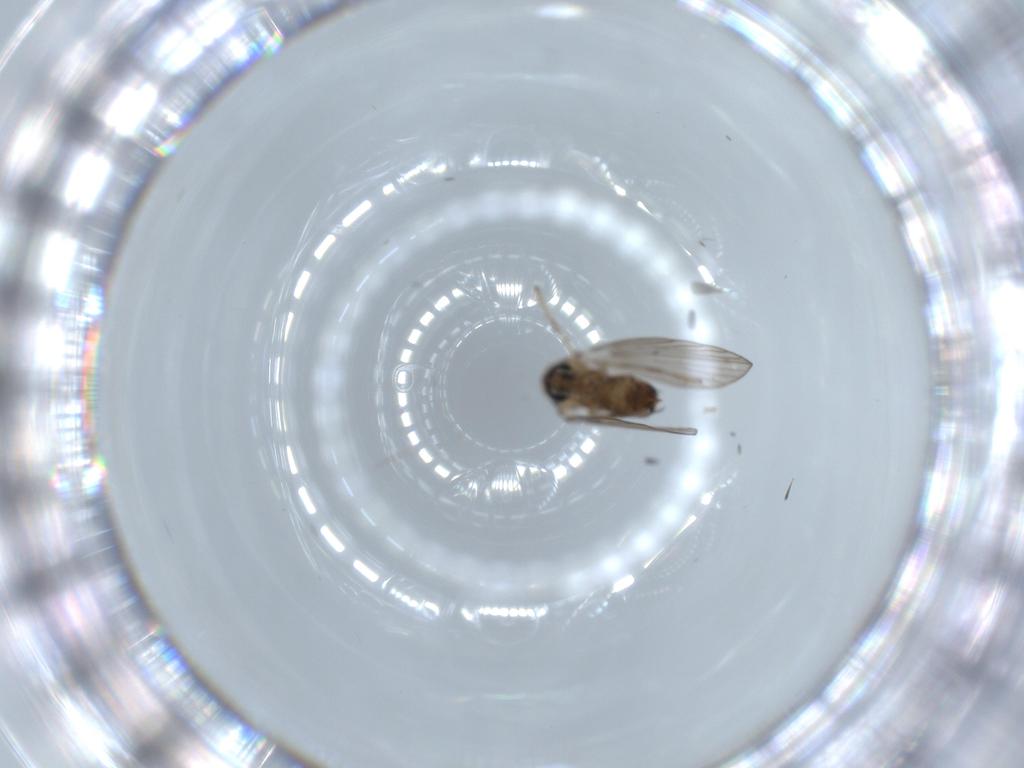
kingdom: Animalia
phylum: Arthropoda
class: Insecta
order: Diptera
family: Psychodidae
